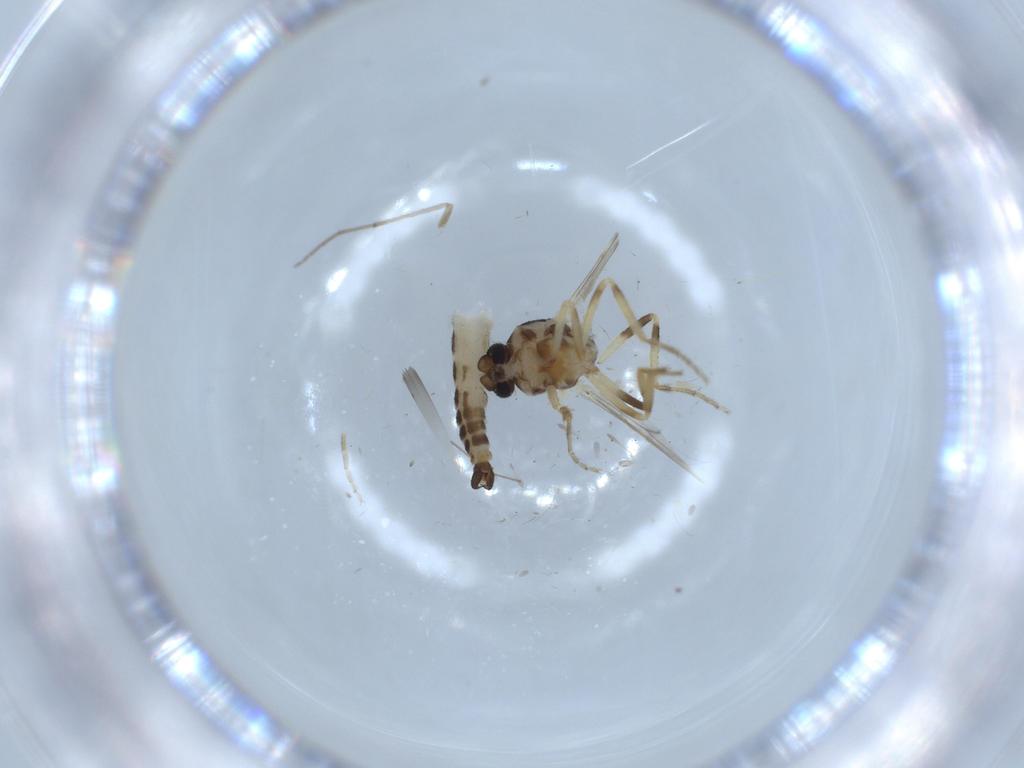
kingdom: Animalia
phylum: Arthropoda
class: Insecta
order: Diptera
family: Ceratopogonidae
